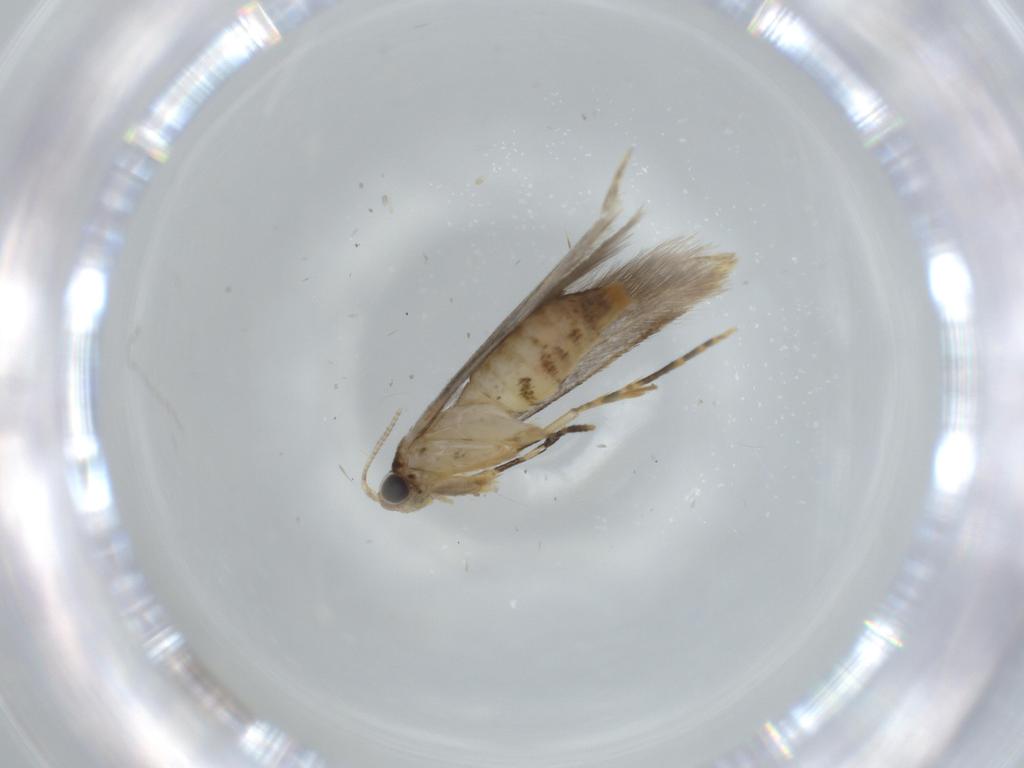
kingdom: Animalia
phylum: Arthropoda
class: Insecta
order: Lepidoptera
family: Tineidae
